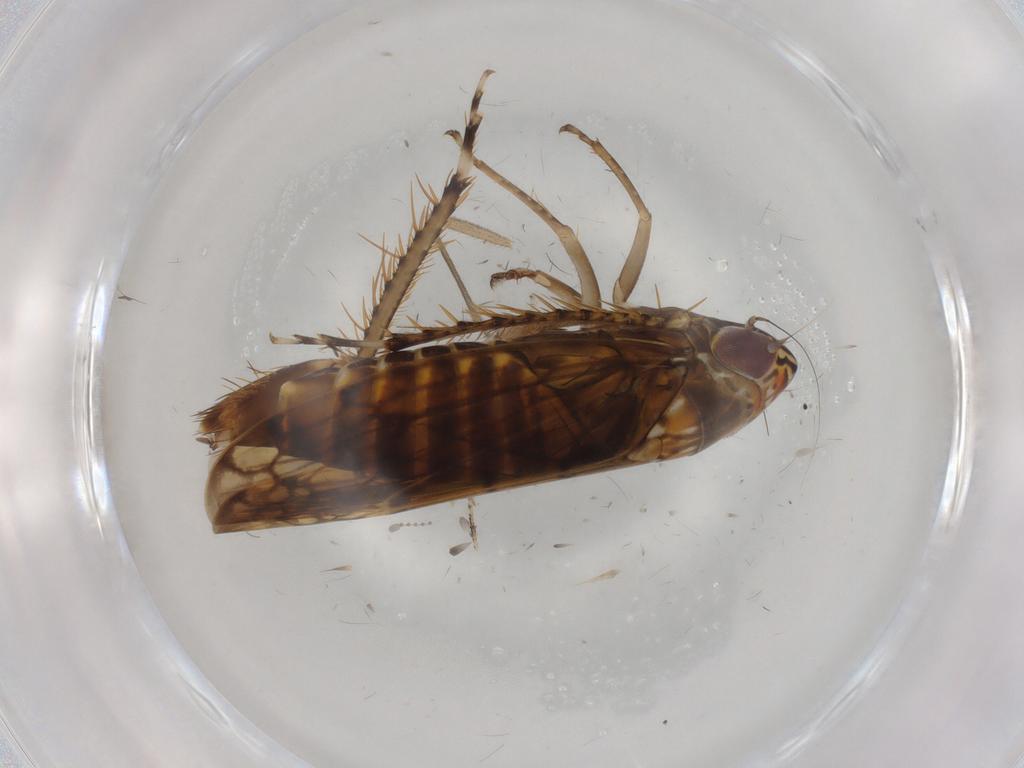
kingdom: Animalia
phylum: Arthropoda
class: Insecta
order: Hemiptera
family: Cicadellidae
